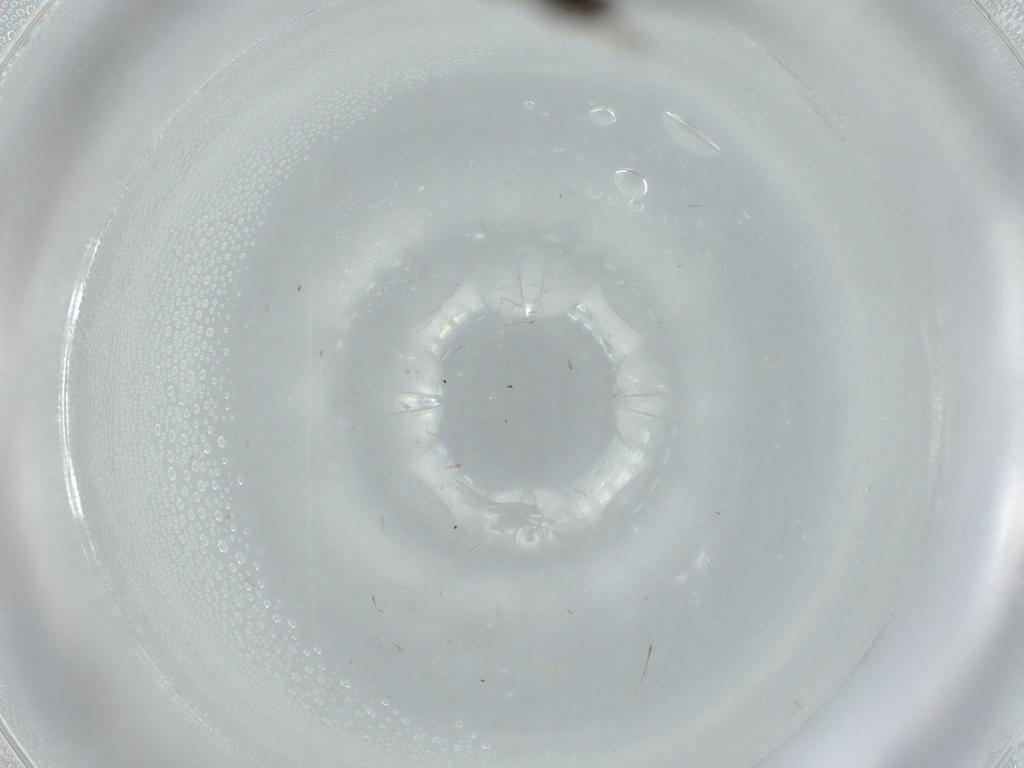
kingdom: Animalia
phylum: Arthropoda
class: Insecta
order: Diptera
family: Cecidomyiidae
